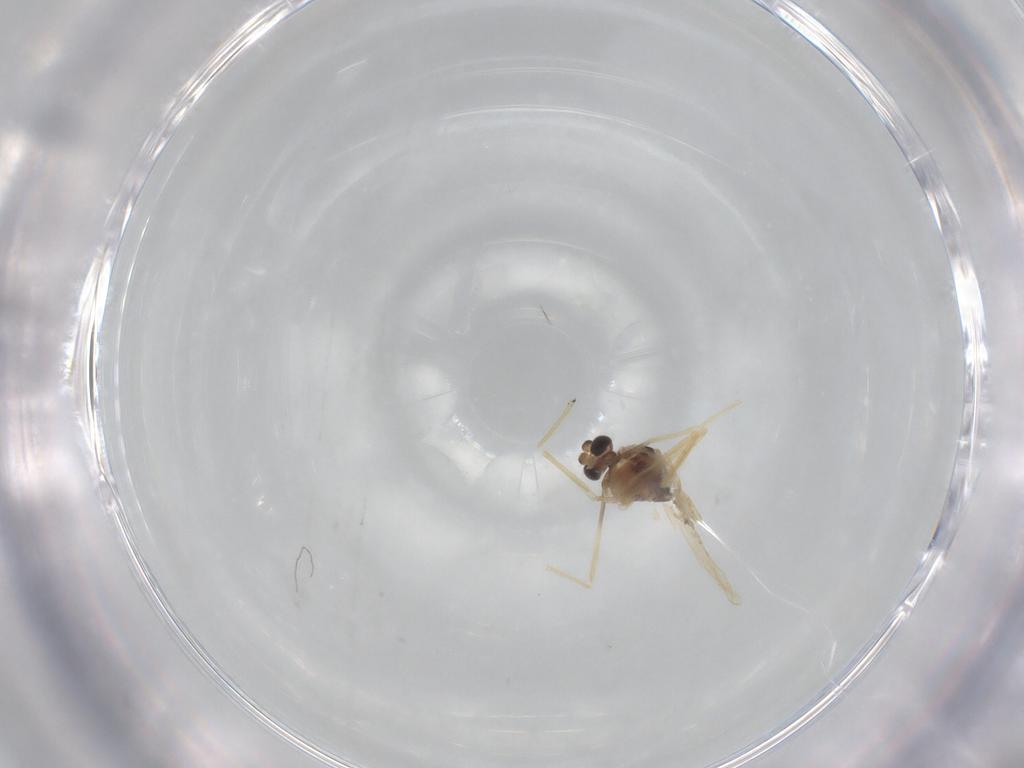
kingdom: Animalia
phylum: Arthropoda
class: Insecta
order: Diptera
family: Chironomidae
